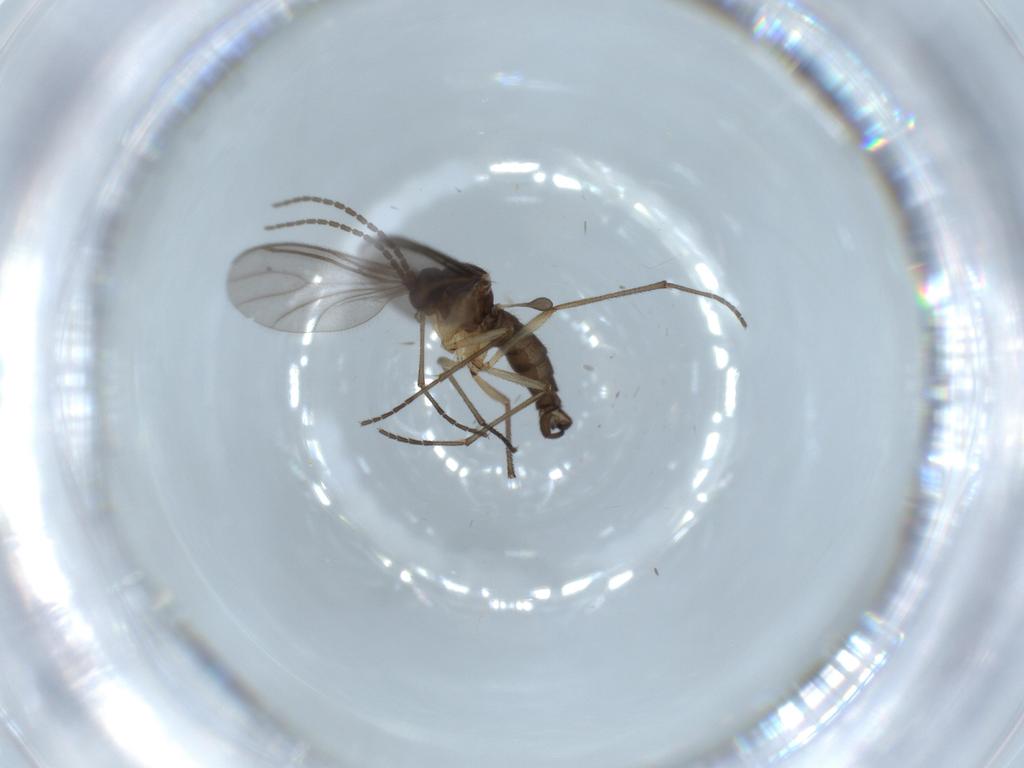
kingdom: Animalia
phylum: Arthropoda
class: Insecta
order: Diptera
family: Sciaridae
